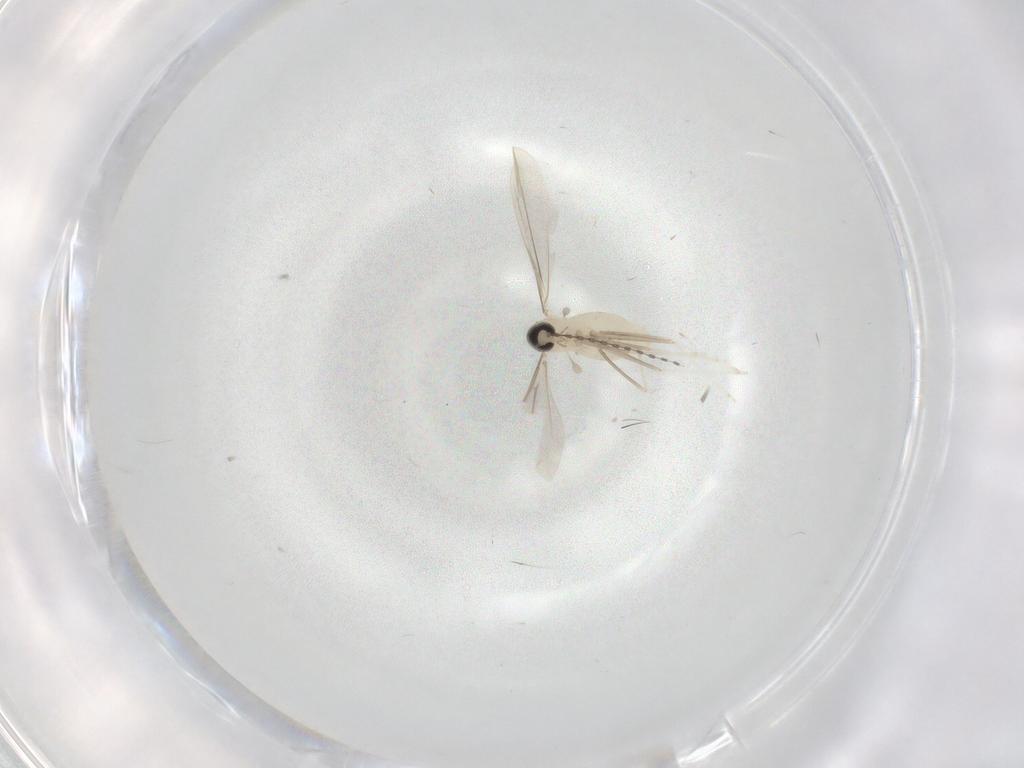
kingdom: Animalia
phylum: Arthropoda
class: Insecta
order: Diptera
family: Cecidomyiidae
